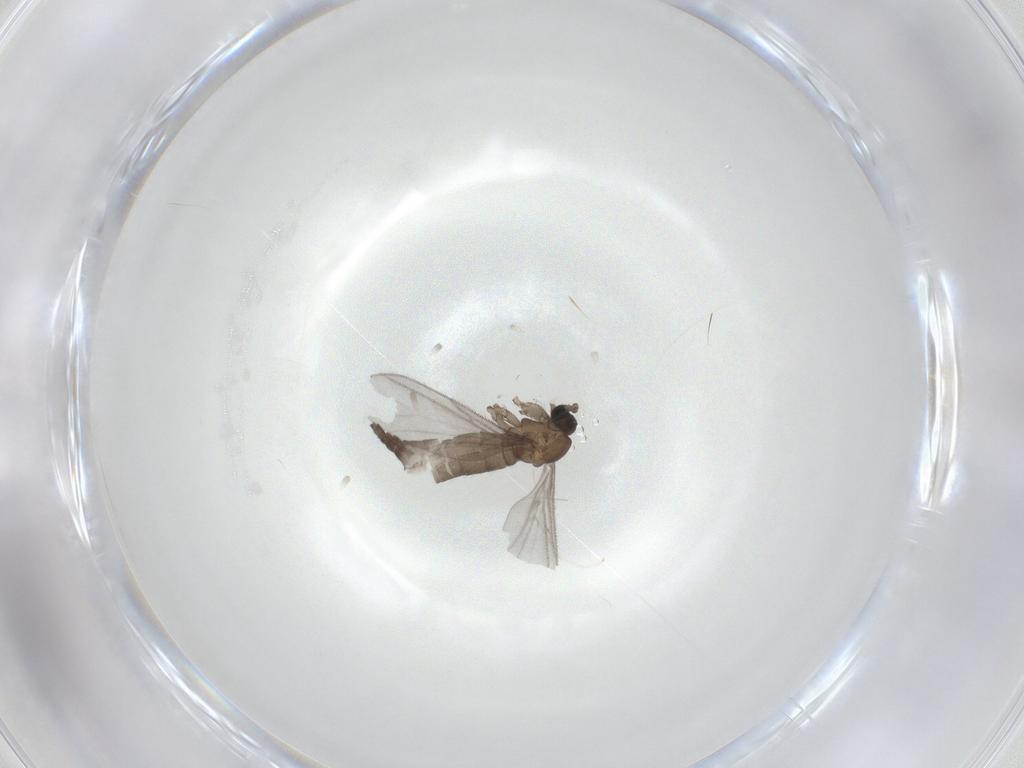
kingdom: Animalia
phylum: Arthropoda
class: Insecta
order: Diptera
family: Sciaridae
